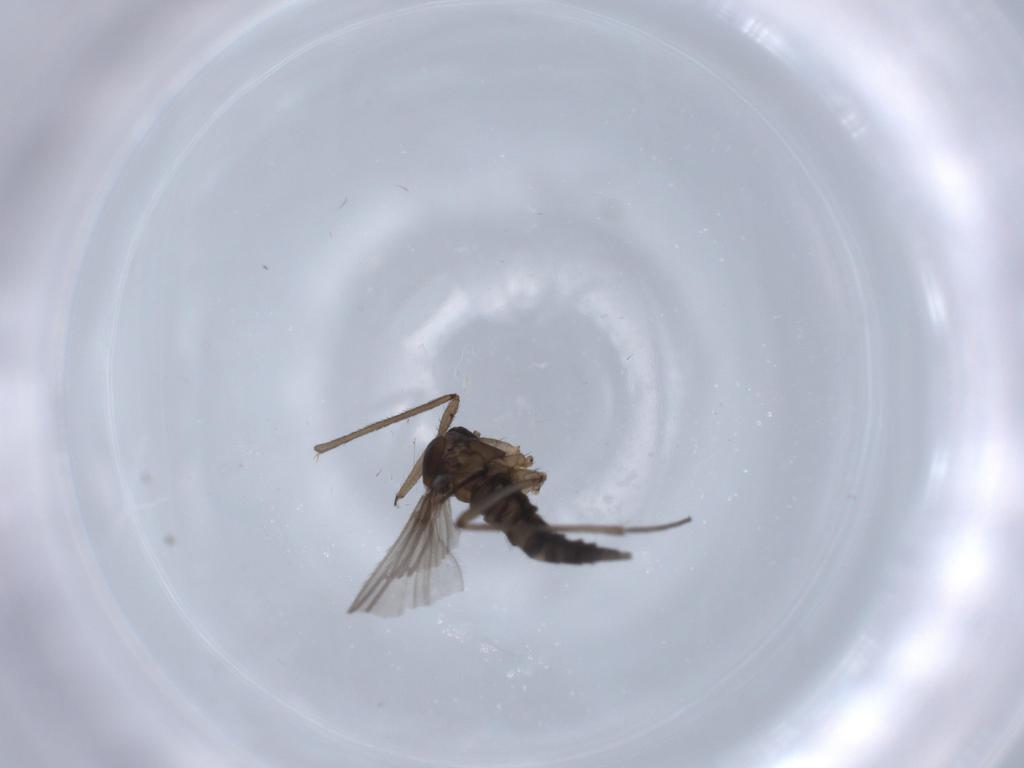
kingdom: Animalia
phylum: Arthropoda
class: Insecta
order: Diptera
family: Sciaridae
